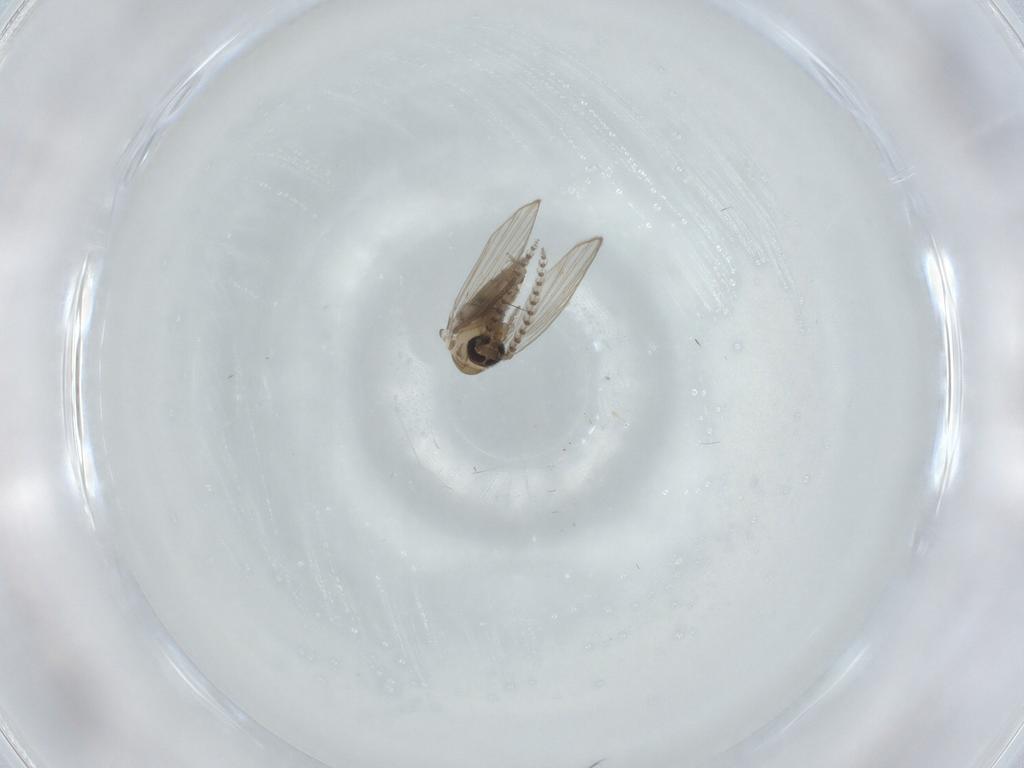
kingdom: Animalia
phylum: Arthropoda
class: Insecta
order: Diptera
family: Psychodidae
